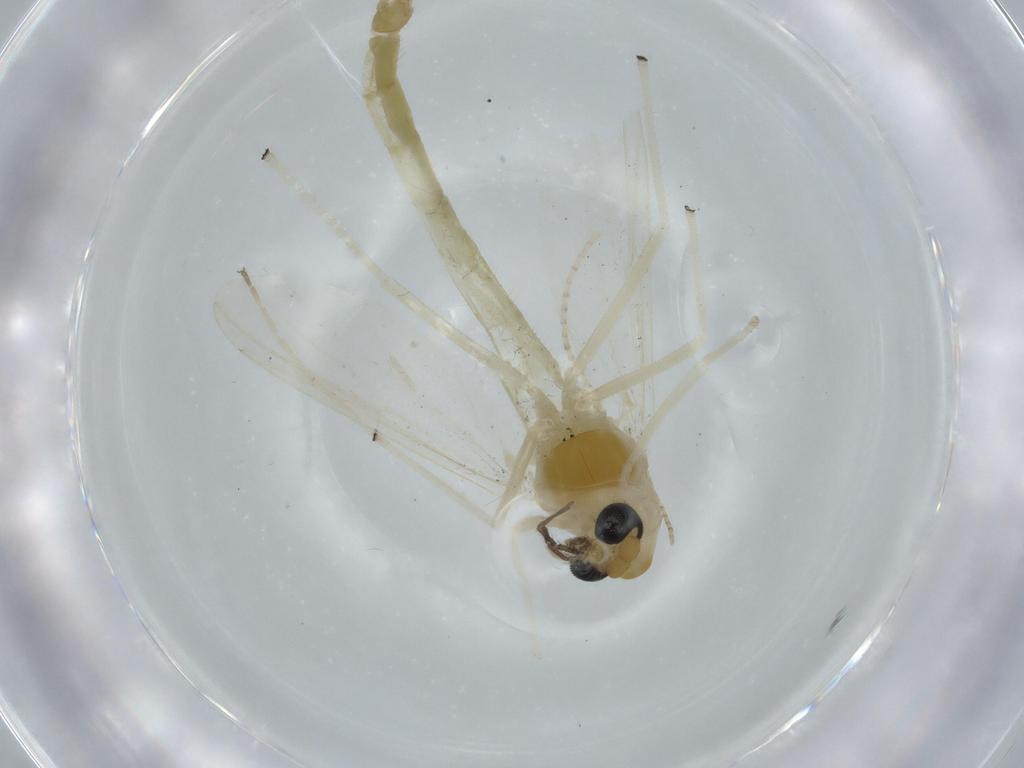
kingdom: Animalia
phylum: Arthropoda
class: Insecta
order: Diptera
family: Chironomidae
